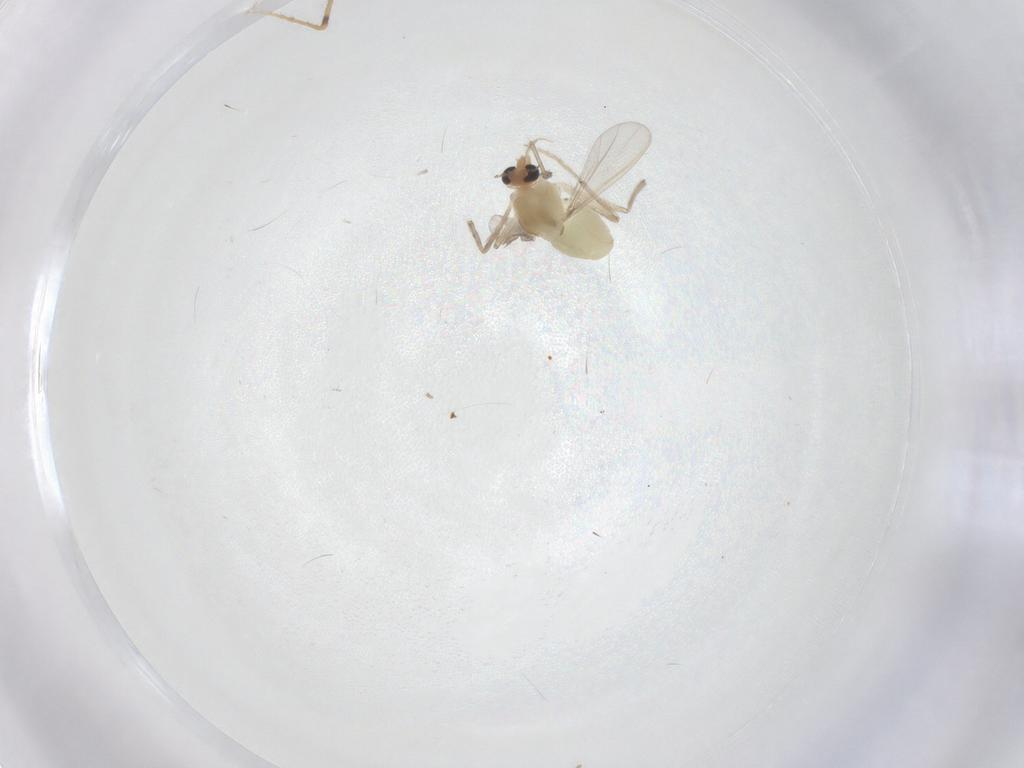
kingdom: Animalia
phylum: Arthropoda
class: Insecta
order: Diptera
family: Chironomidae
